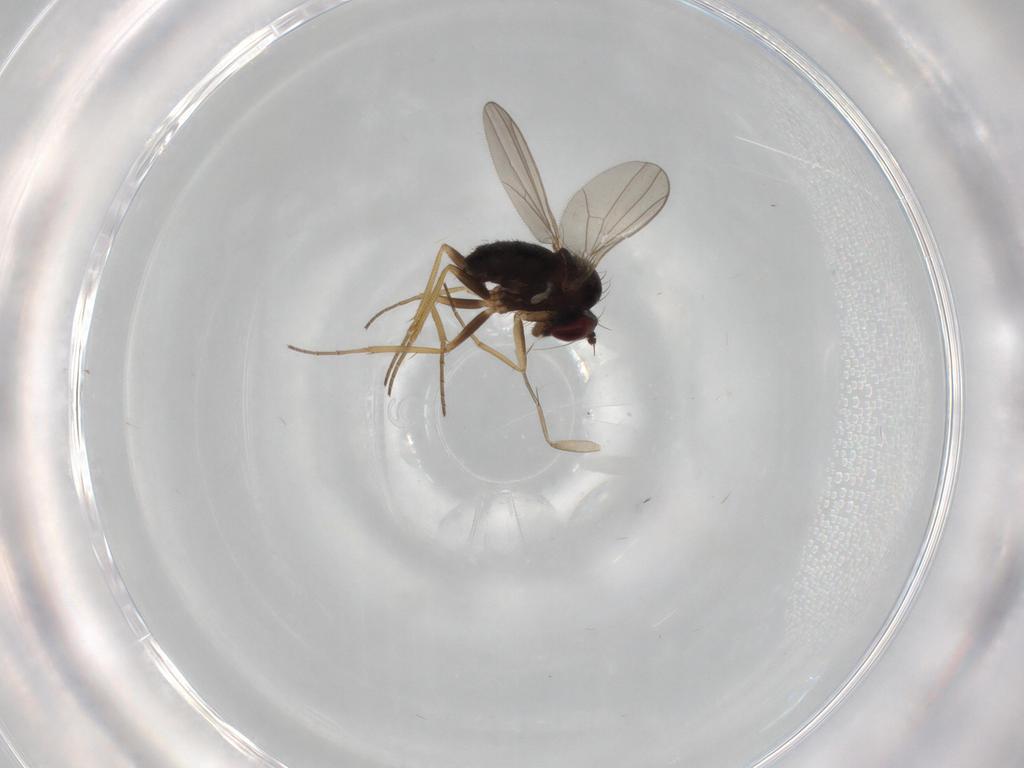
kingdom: Animalia
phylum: Arthropoda
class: Insecta
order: Diptera
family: Dolichopodidae
